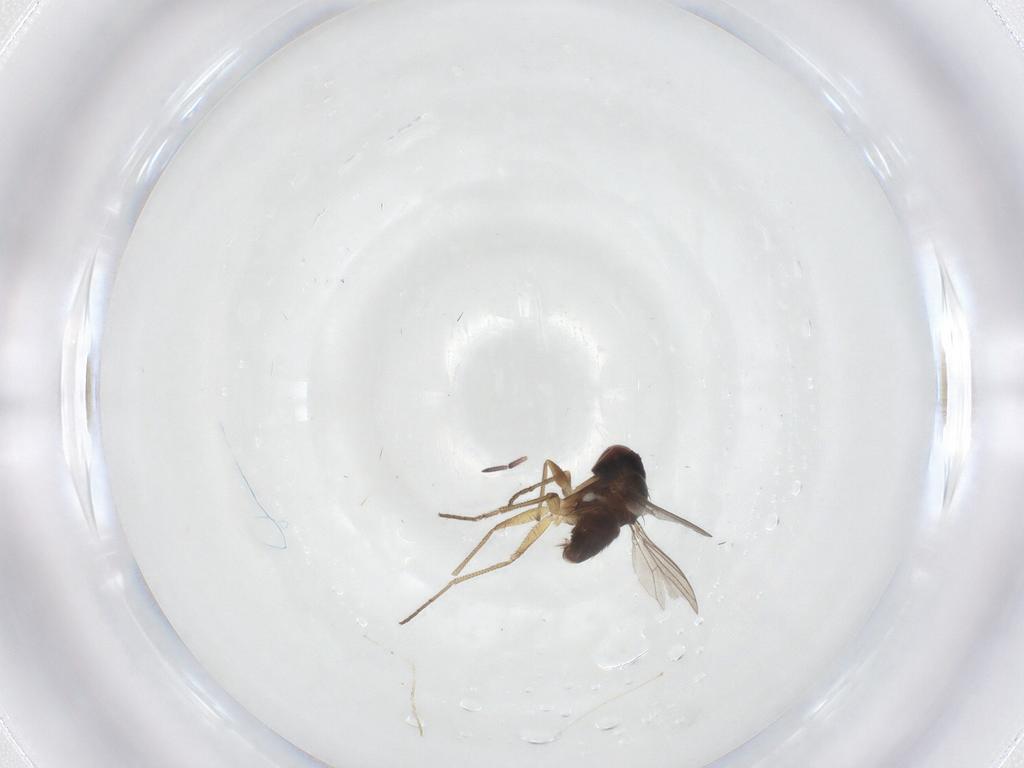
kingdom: Animalia
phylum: Arthropoda
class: Insecta
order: Diptera
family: Dolichopodidae
